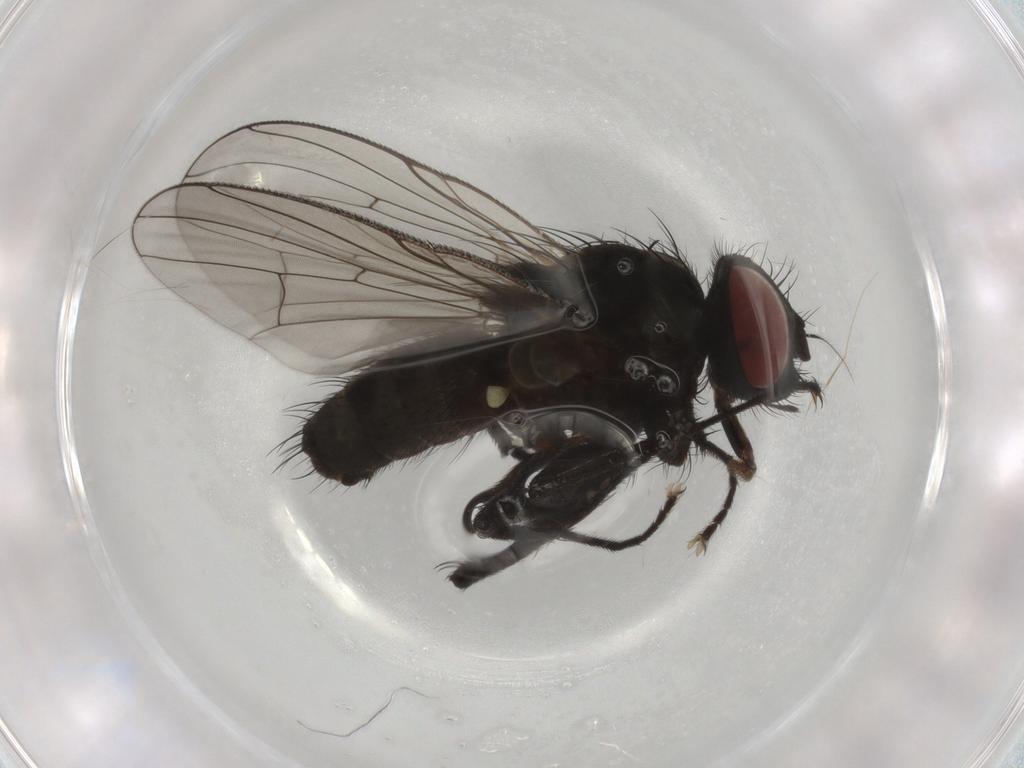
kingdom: Animalia
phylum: Arthropoda
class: Insecta
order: Diptera
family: Muscidae
